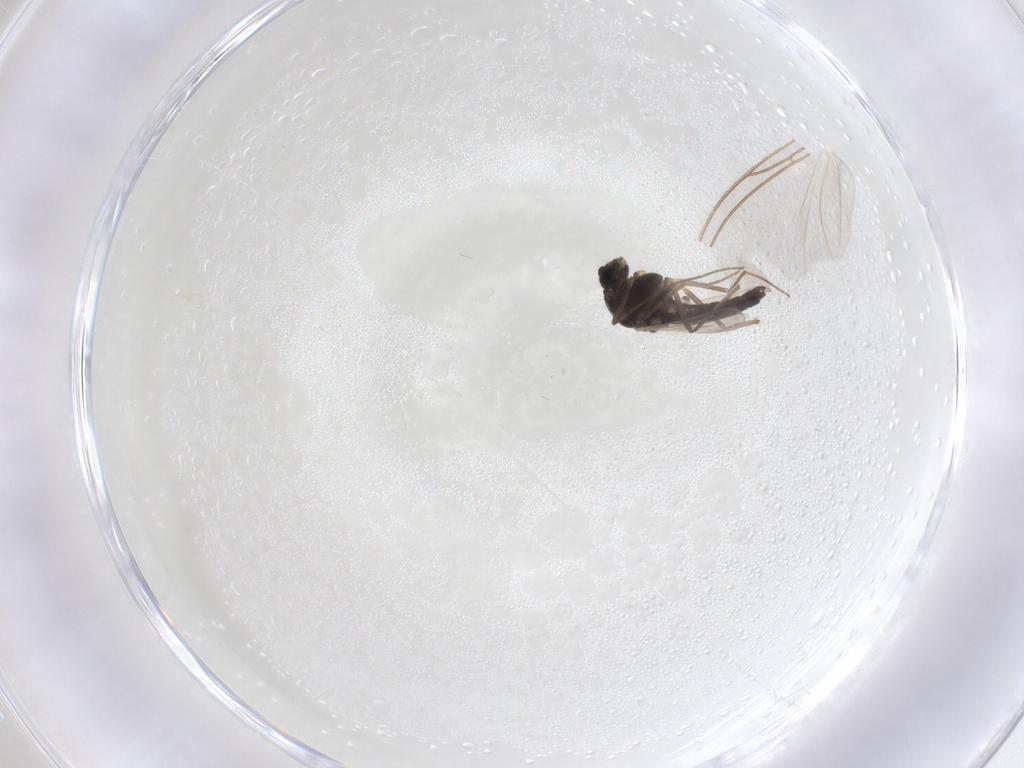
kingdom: Animalia
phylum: Arthropoda
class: Insecta
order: Diptera
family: Chironomidae
